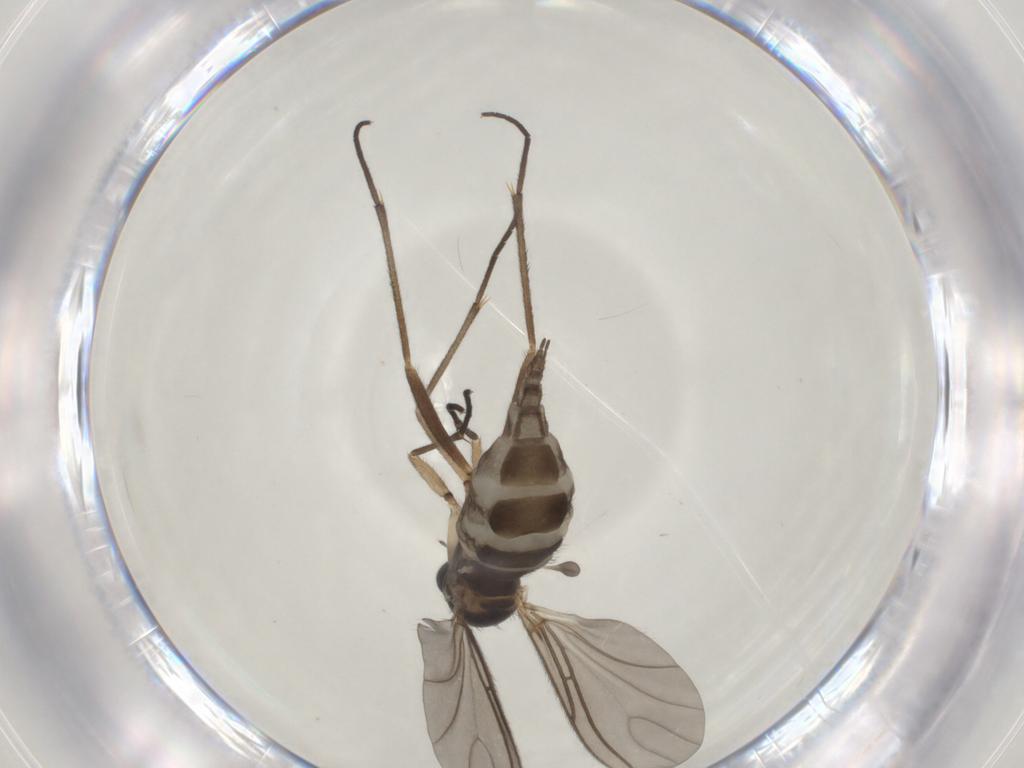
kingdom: Animalia
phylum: Arthropoda
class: Insecta
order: Diptera
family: Sciaridae
